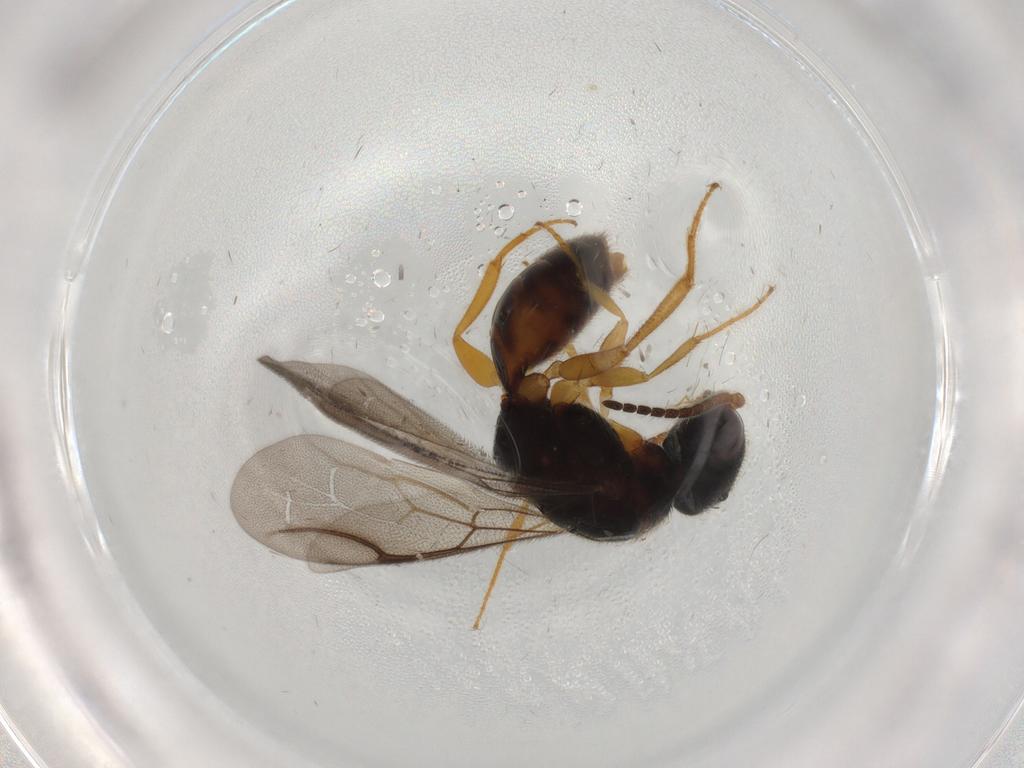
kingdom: Animalia
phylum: Arthropoda
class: Insecta
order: Hymenoptera
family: Bethylidae
